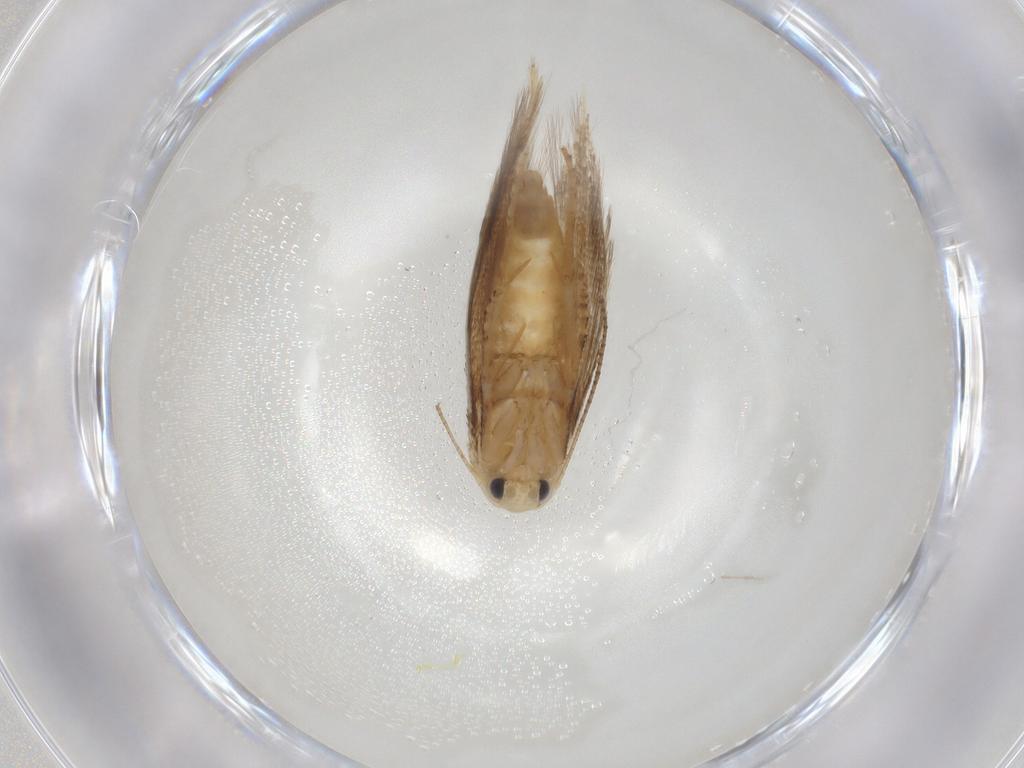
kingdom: Animalia
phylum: Arthropoda
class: Insecta
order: Lepidoptera
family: Bucculatricidae
